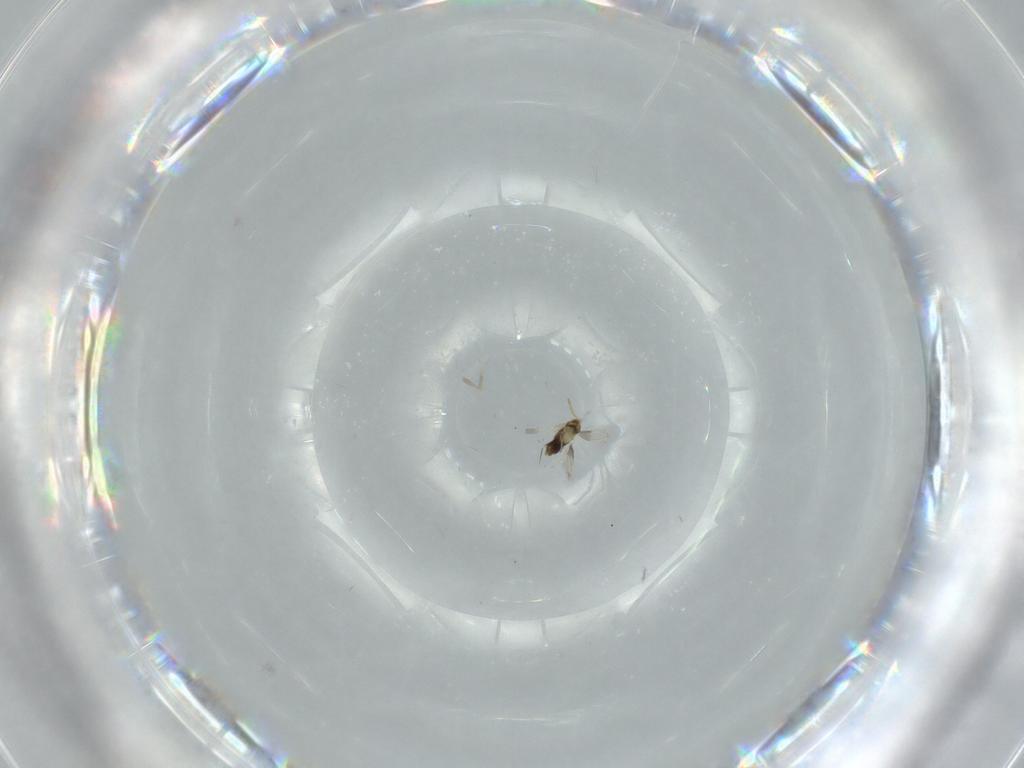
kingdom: Animalia
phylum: Arthropoda
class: Insecta
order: Hymenoptera
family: Aphelinidae
